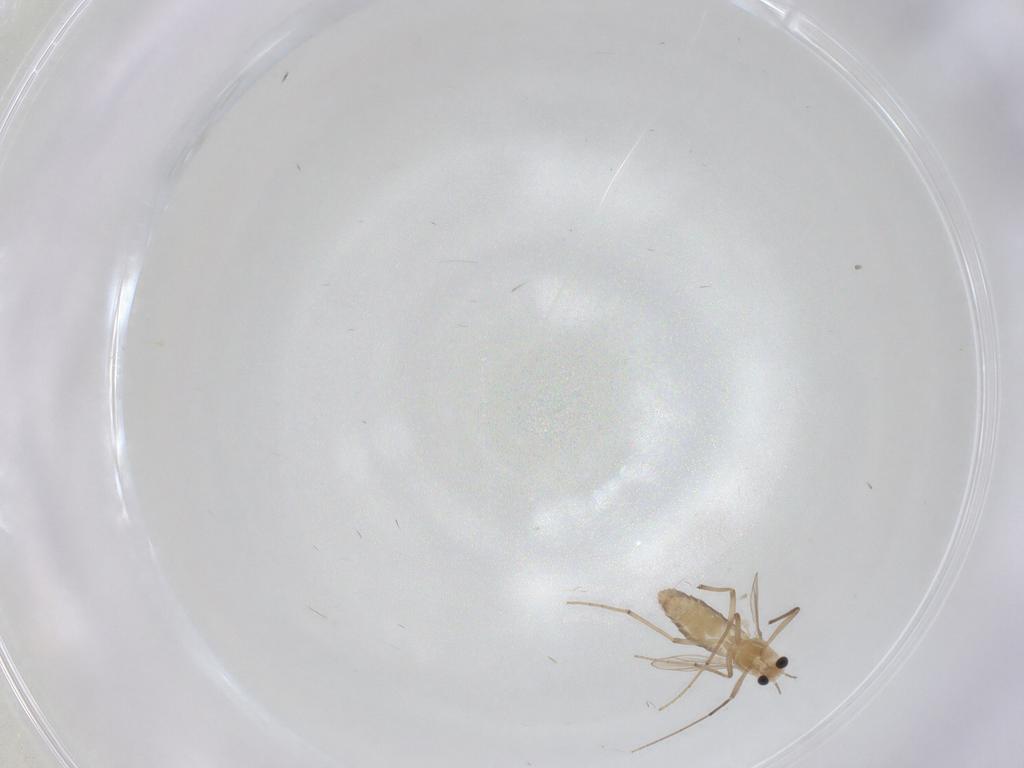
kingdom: Animalia
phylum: Arthropoda
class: Insecta
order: Diptera
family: Chironomidae
